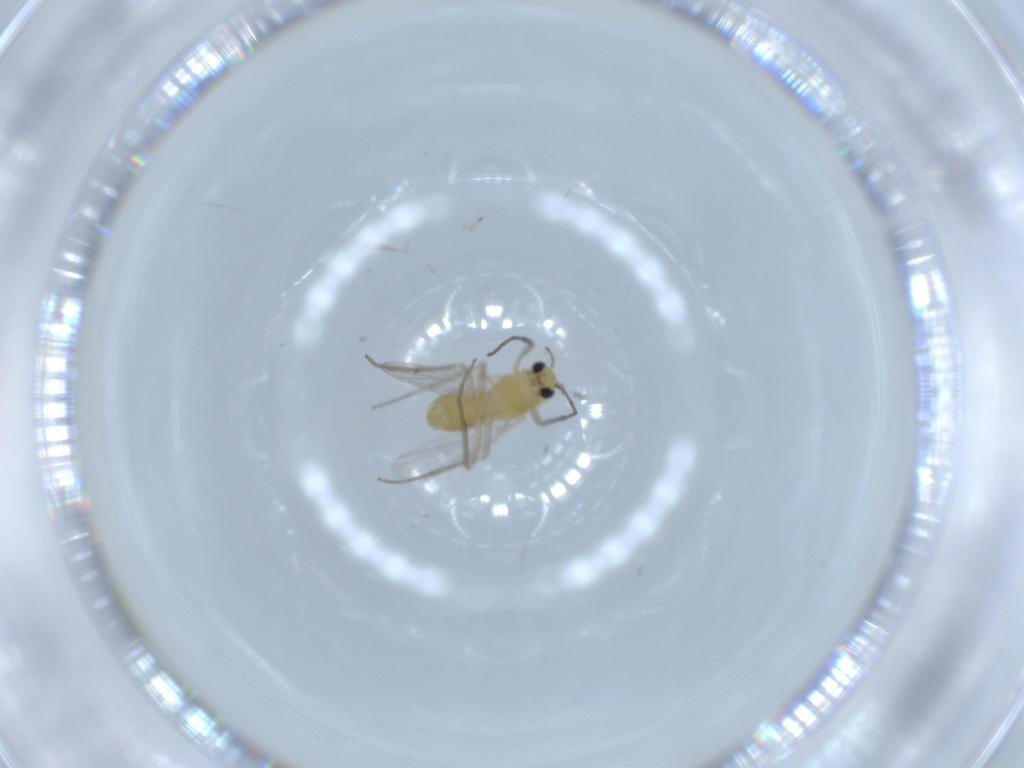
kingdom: Animalia
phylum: Arthropoda
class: Insecta
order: Diptera
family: Chironomidae
